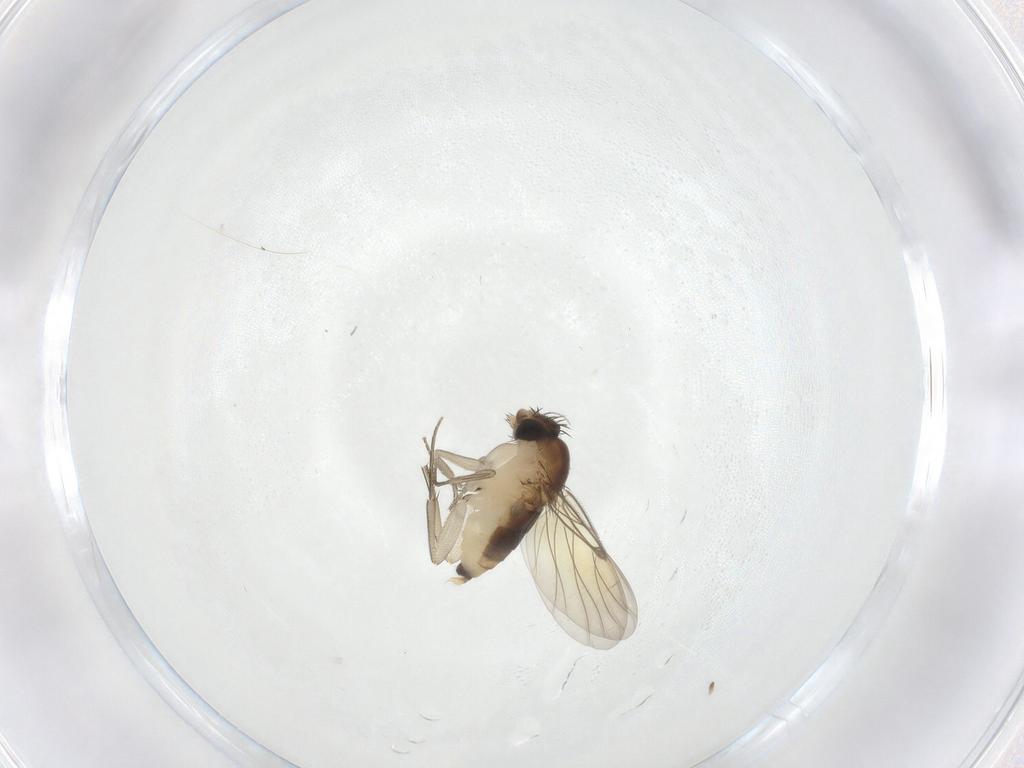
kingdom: Animalia
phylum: Arthropoda
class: Insecta
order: Diptera
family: Phoridae
